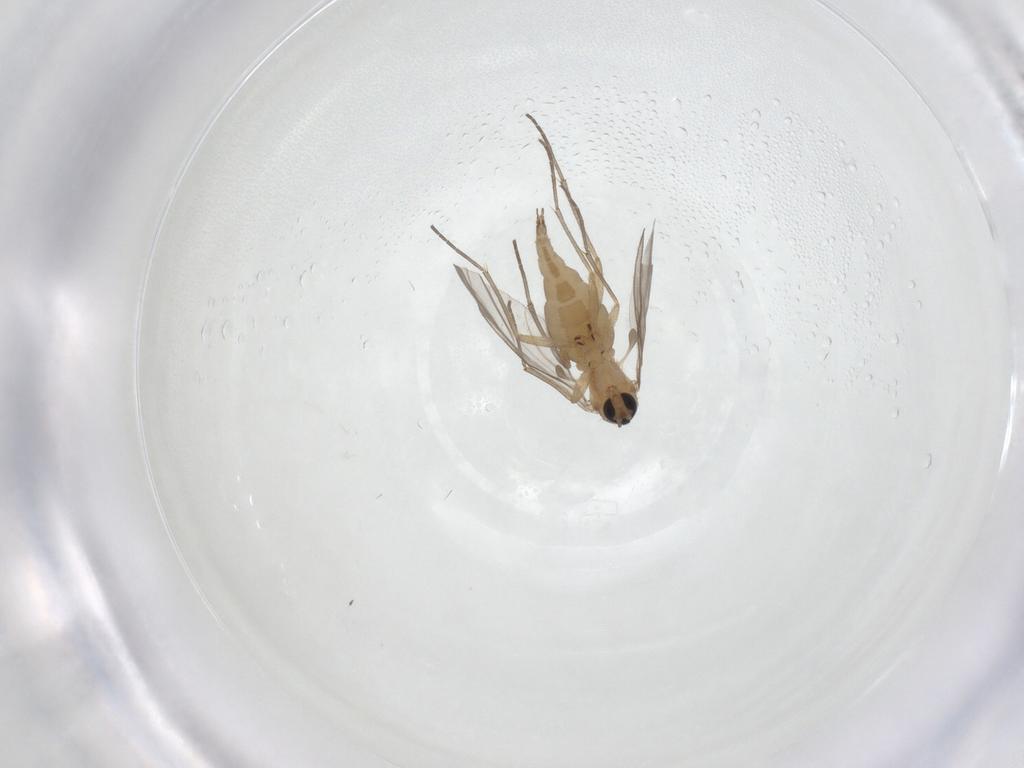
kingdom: Animalia
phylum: Arthropoda
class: Insecta
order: Diptera
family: Sciaridae
